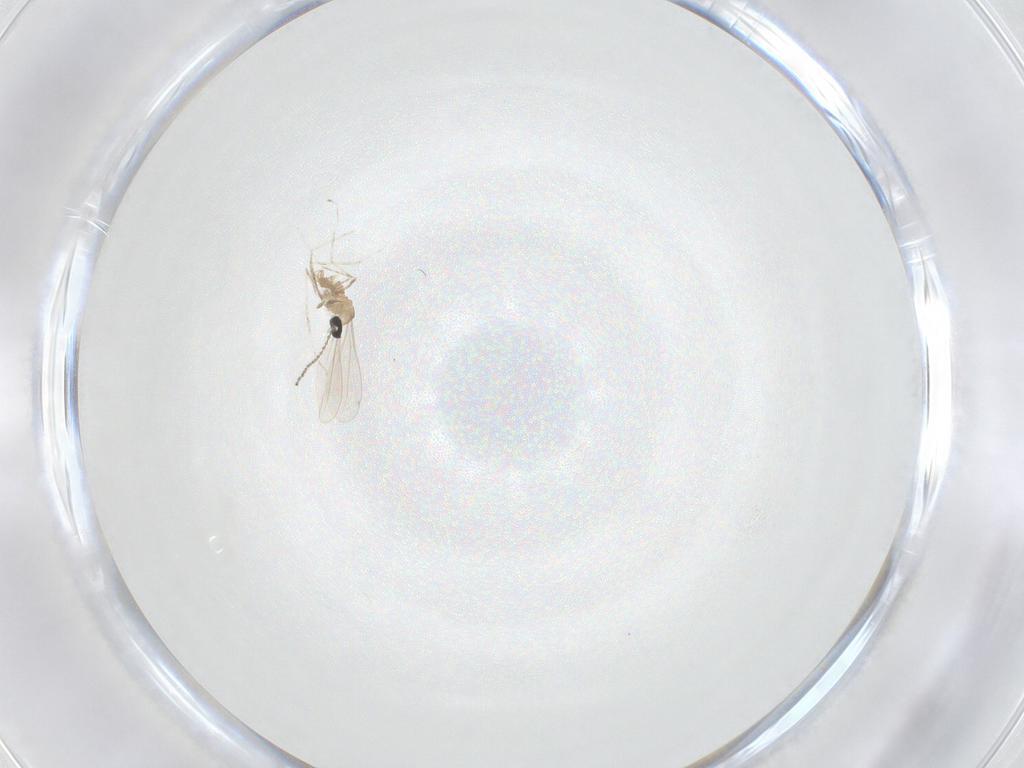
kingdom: Animalia
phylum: Arthropoda
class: Insecta
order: Diptera
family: Cecidomyiidae
